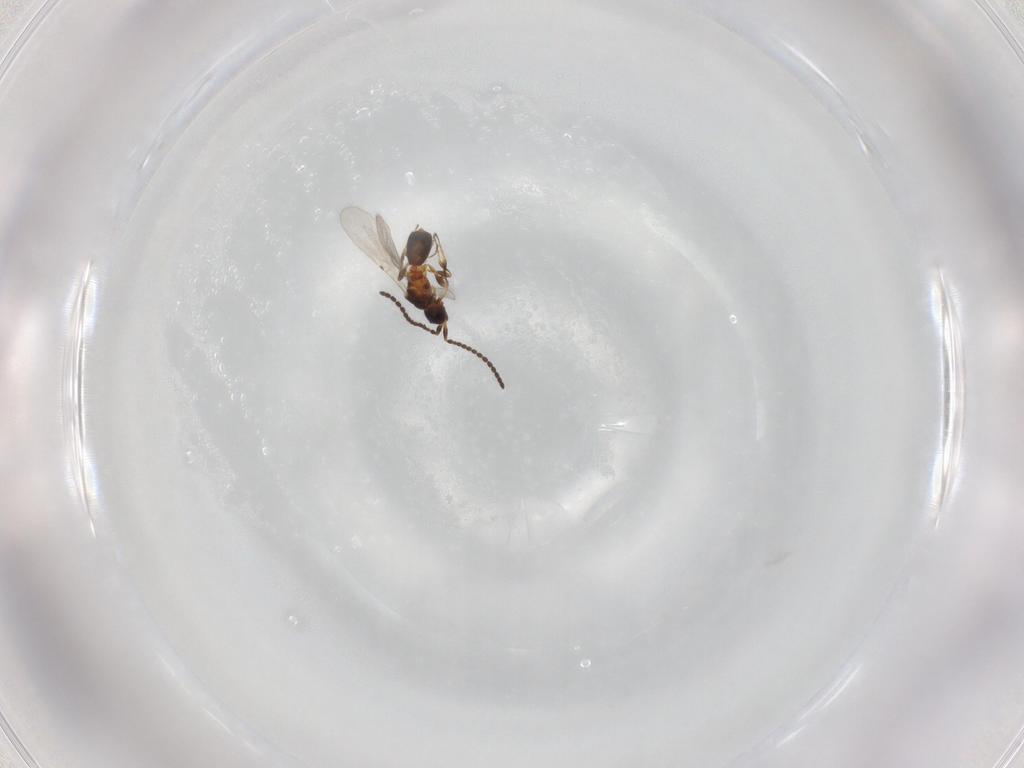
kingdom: Animalia
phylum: Arthropoda
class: Insecta
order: Hymenoptera
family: Diapriidae
